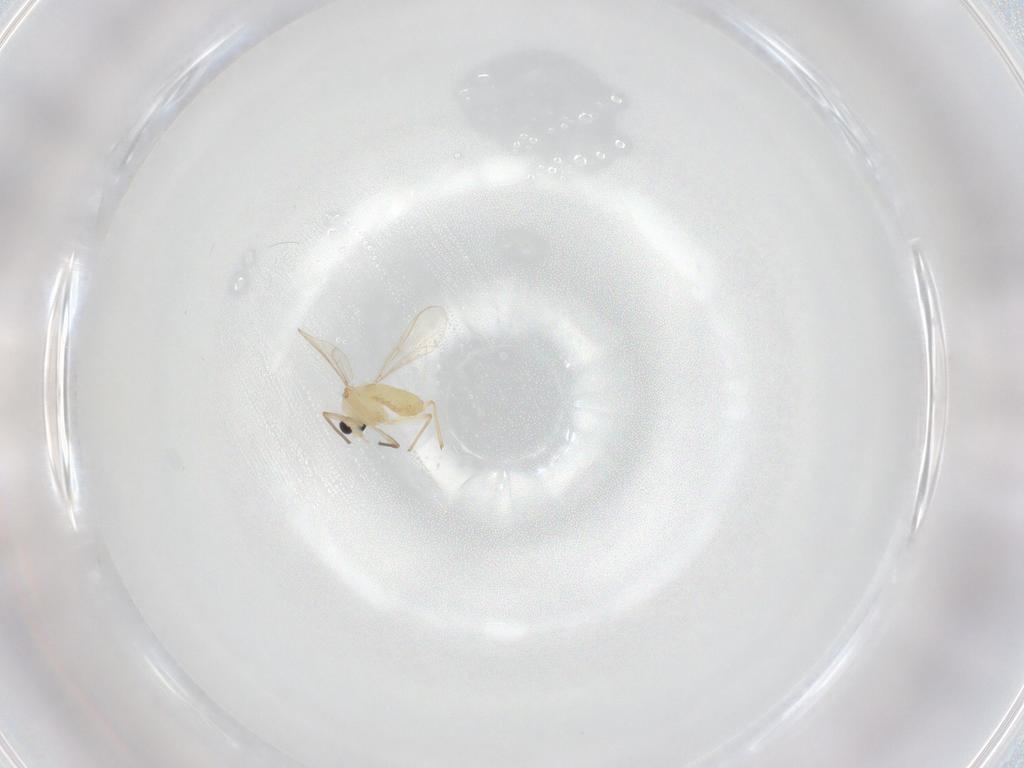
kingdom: Animalia
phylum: Arthropoda
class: Insecta
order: Diptera
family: Chironomidae
